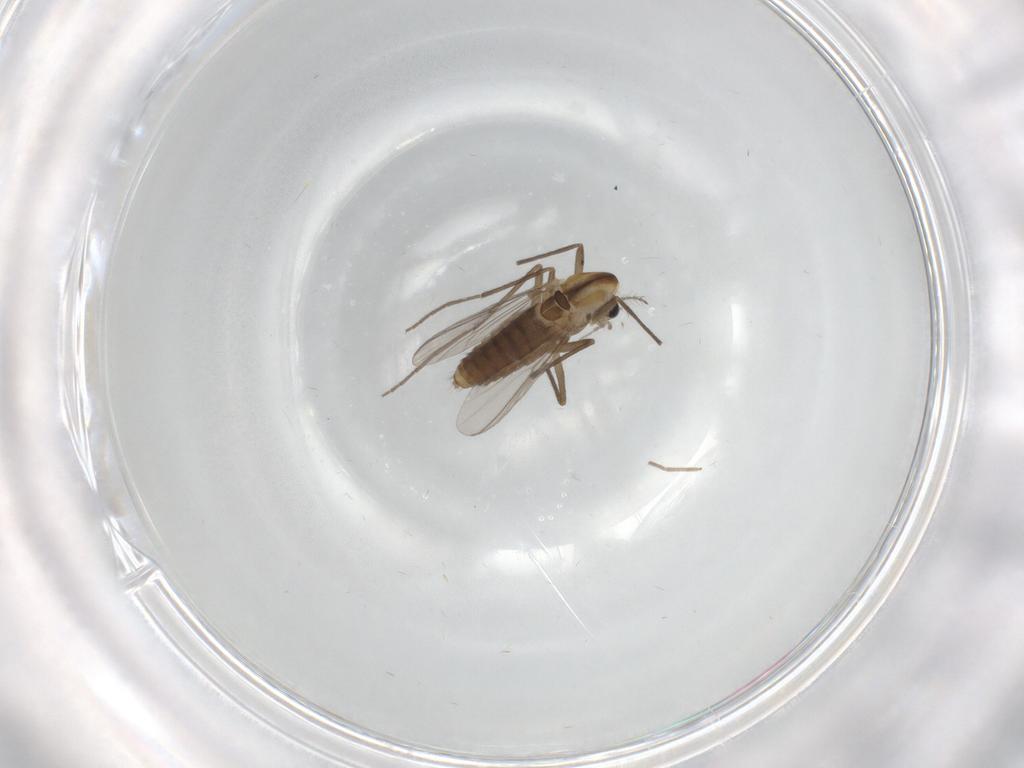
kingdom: Animalia
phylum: Arthropoda
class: Insecta
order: Diptera
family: Chironomidae
